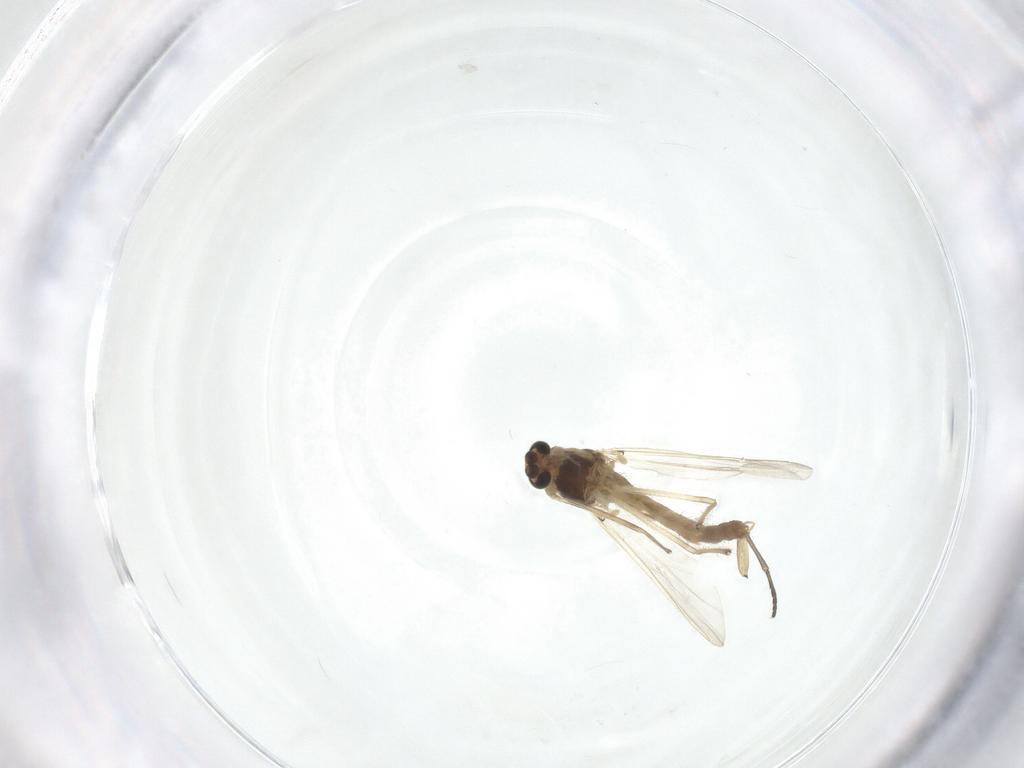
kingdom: Animalia
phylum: Arthropoda
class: Insecta
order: Diptera
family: Chironomidae
